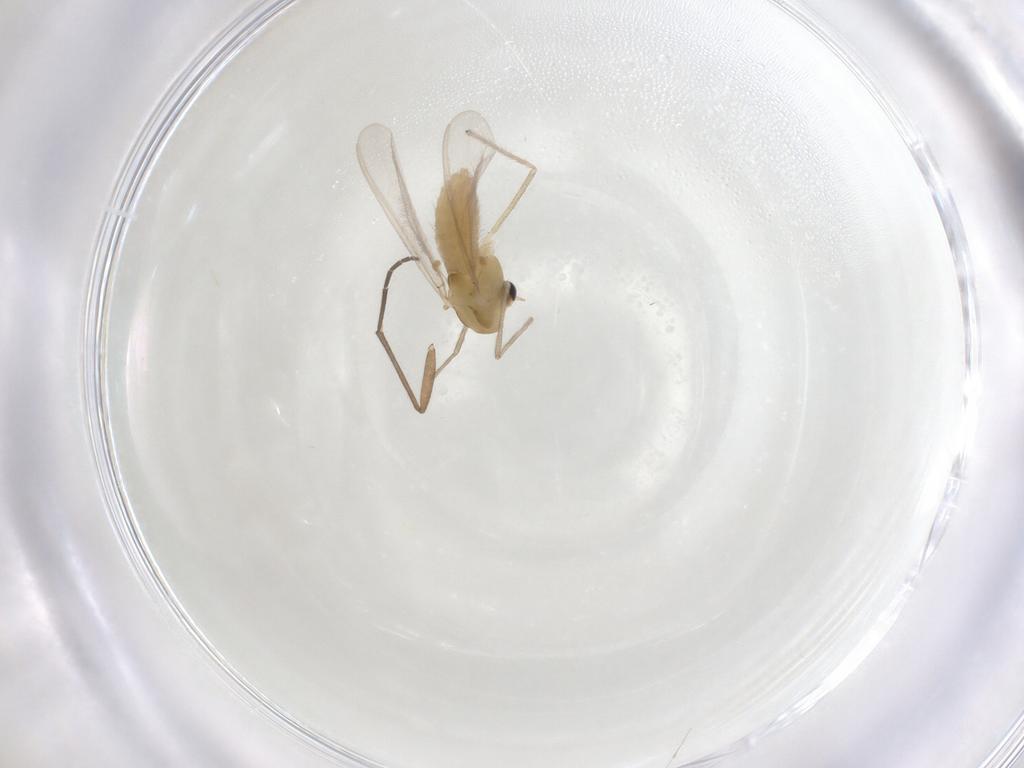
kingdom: Animalia
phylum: Arthropoda
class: Insecta
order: Diptera
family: Chironomidae
